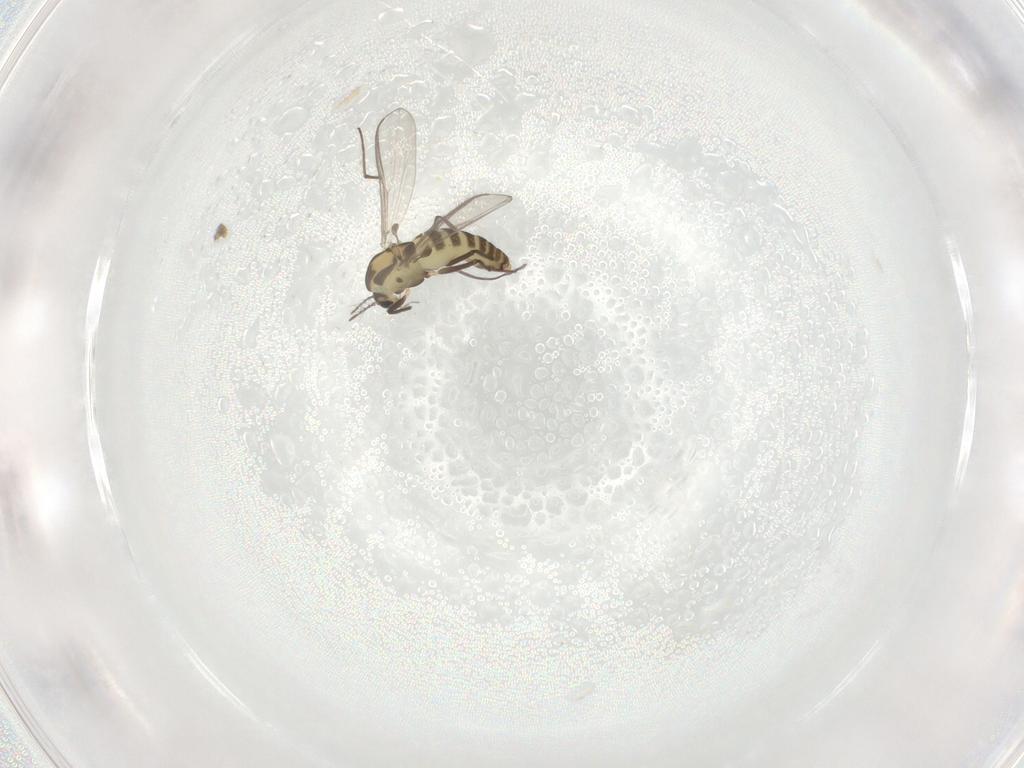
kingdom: Animalia
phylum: Arthropoda
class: Insecta
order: Diptera
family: Chironomidae
